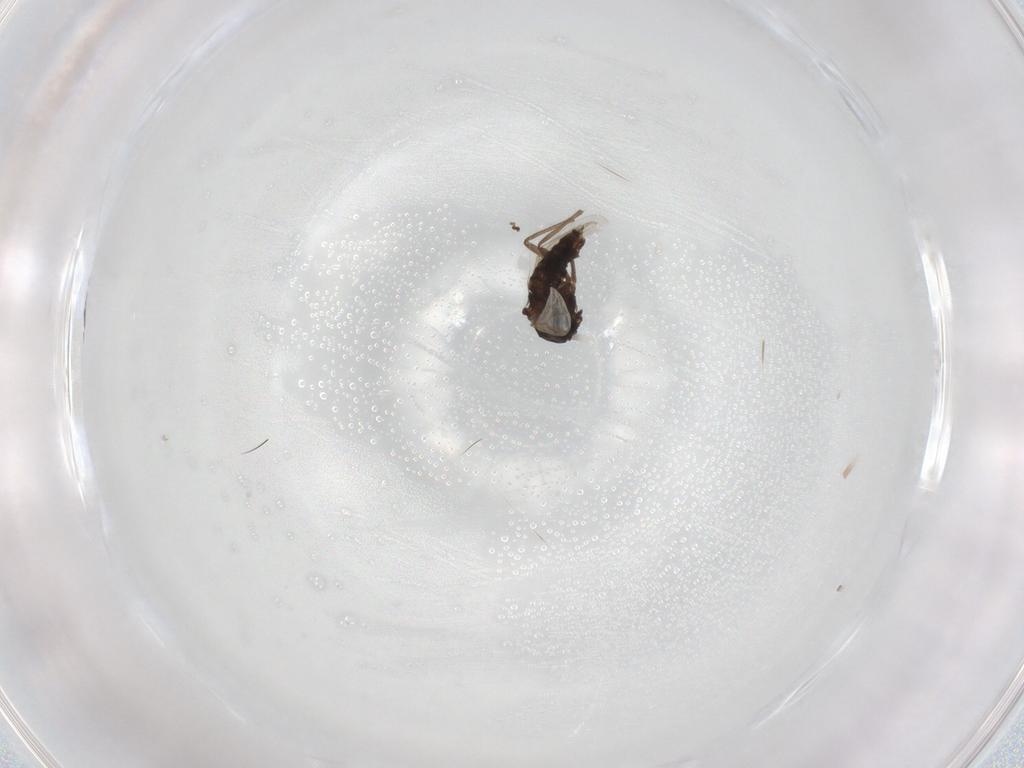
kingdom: Animalia
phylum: Arthropoda
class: Insecta
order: Diptera
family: Chironomidae
